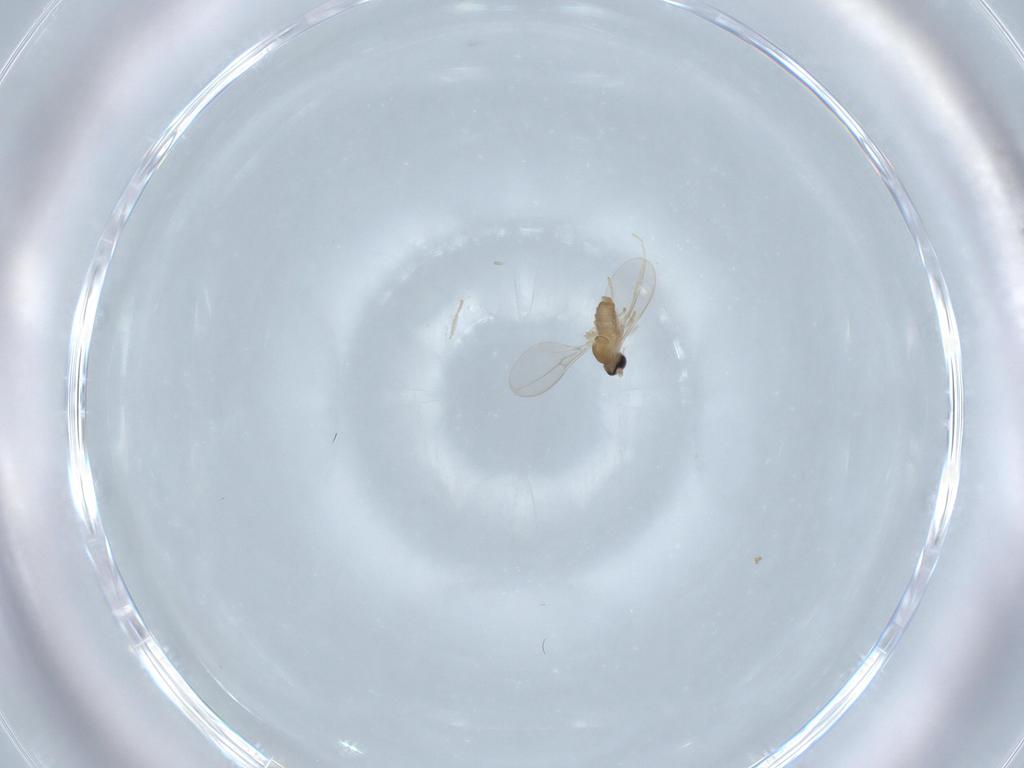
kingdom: Animalia
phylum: Arthropoda
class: Insecta
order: Diptera
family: Cecidomyiidae
